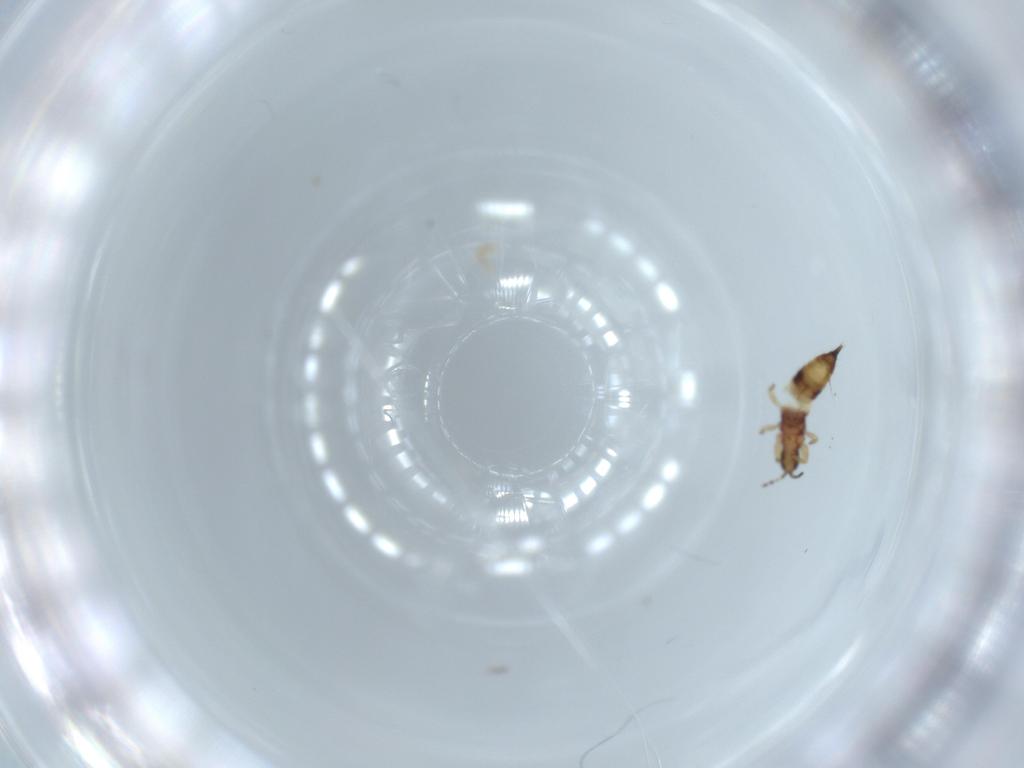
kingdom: Animalia
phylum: Arthropoda
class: Insecta
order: Thysanoptera
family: Phlaeothripidae
